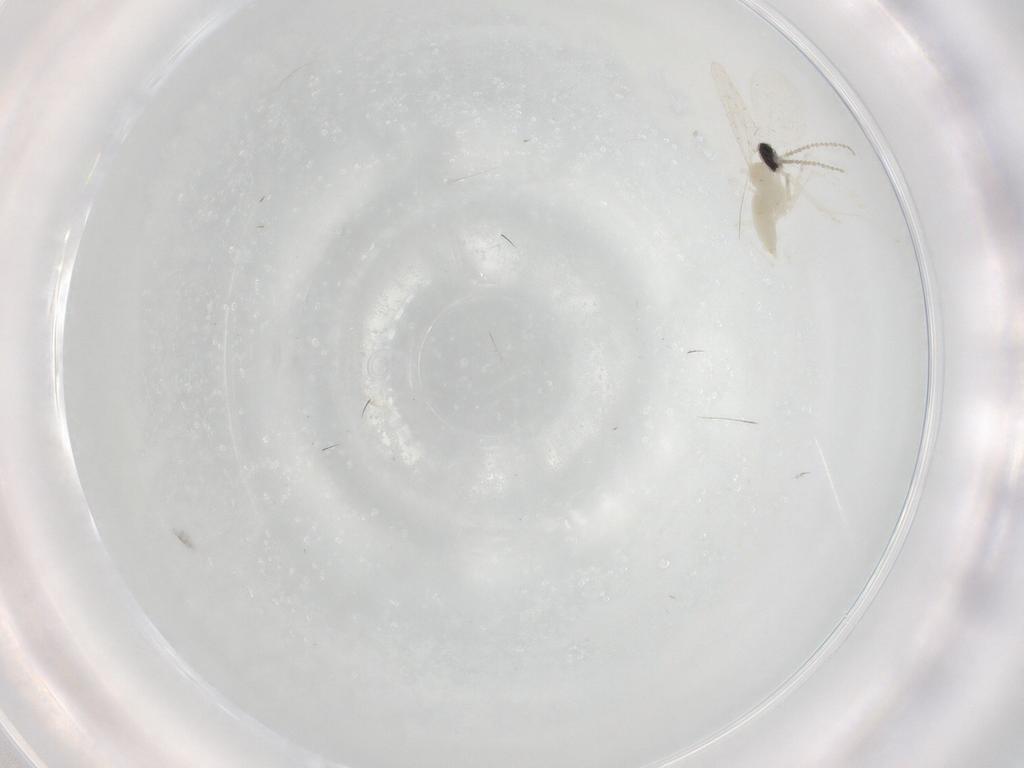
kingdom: Animalia
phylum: Arthropoda
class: Insecta
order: Diptera
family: Cecidomyiidae
